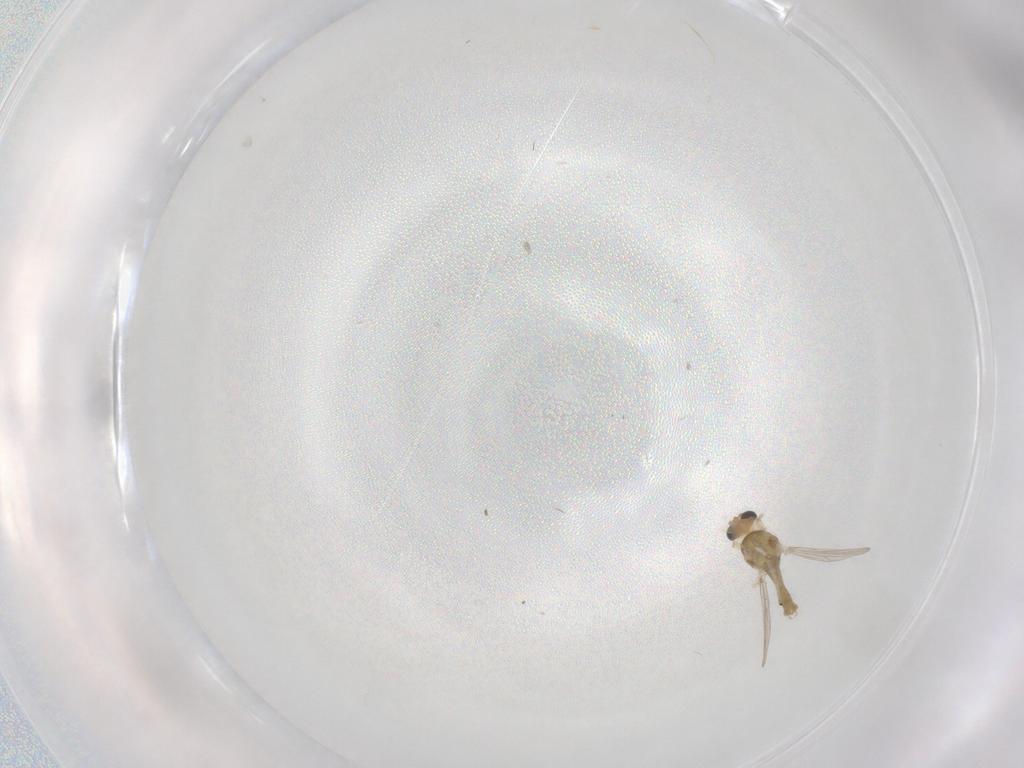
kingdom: Animalia
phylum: Arthropoda
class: Insecta
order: Diptera
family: Chironomidae
